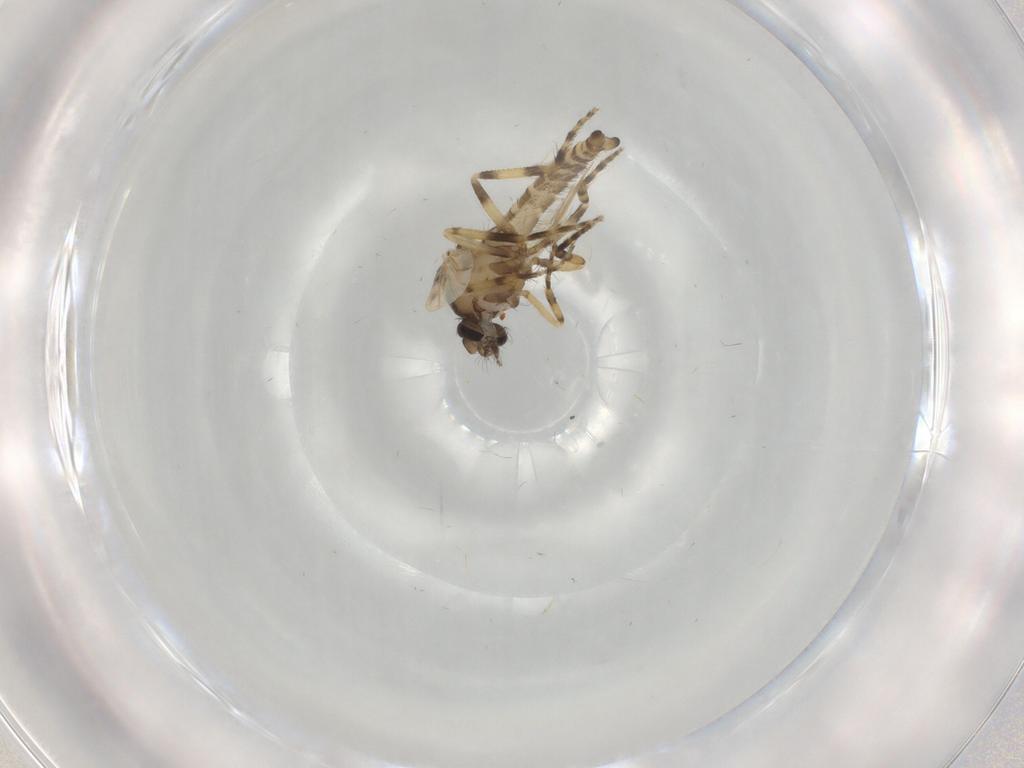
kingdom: Animalia
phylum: Arthropoda
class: Insecta
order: Diptera
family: Ceratopogonidae
